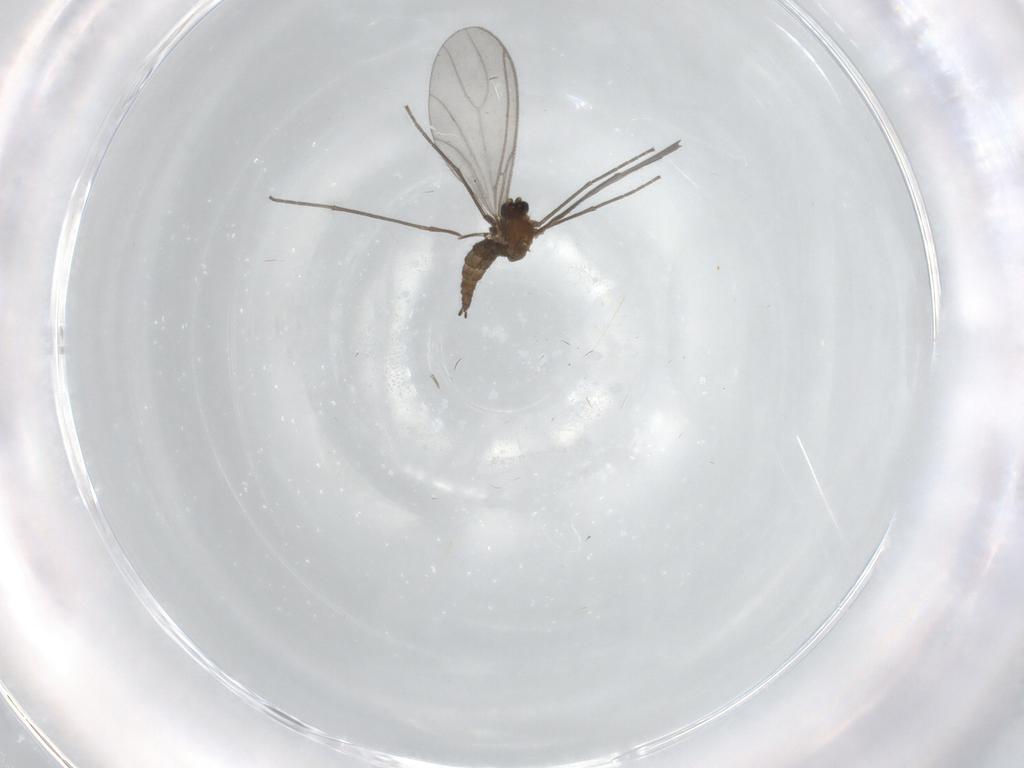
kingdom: Animalia
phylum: Arthropoda
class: Insecta
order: Diptera
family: Sciaridae
